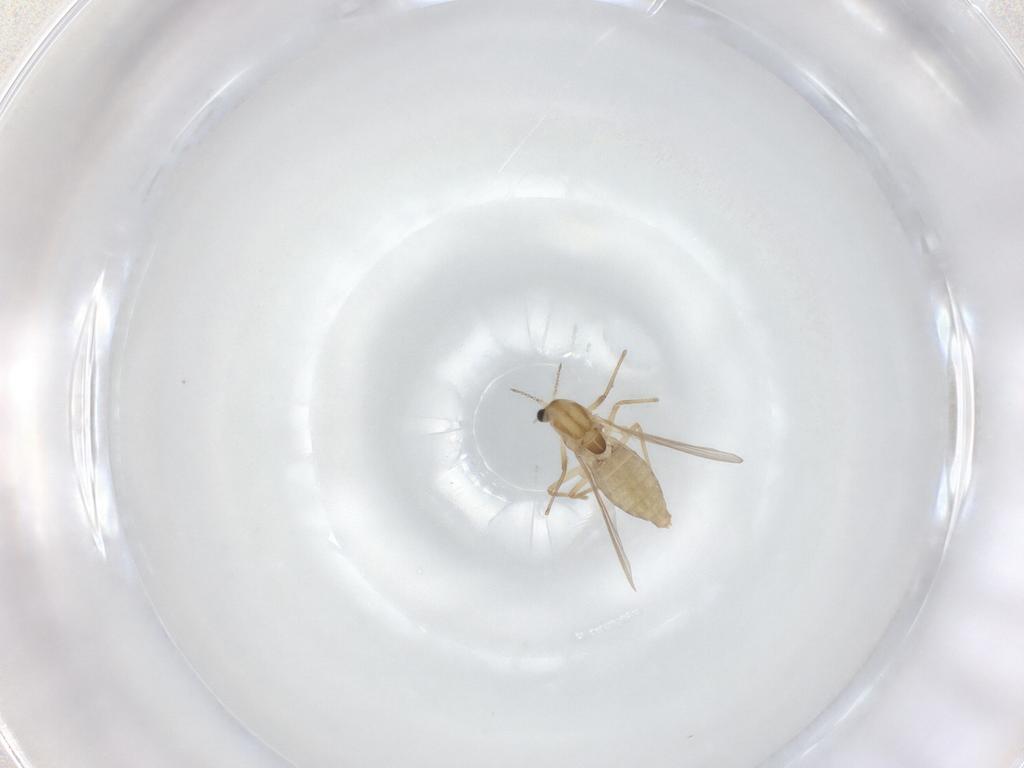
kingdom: Animalia
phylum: Arthropoda
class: Insecta
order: Diptera
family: Chironomidae
